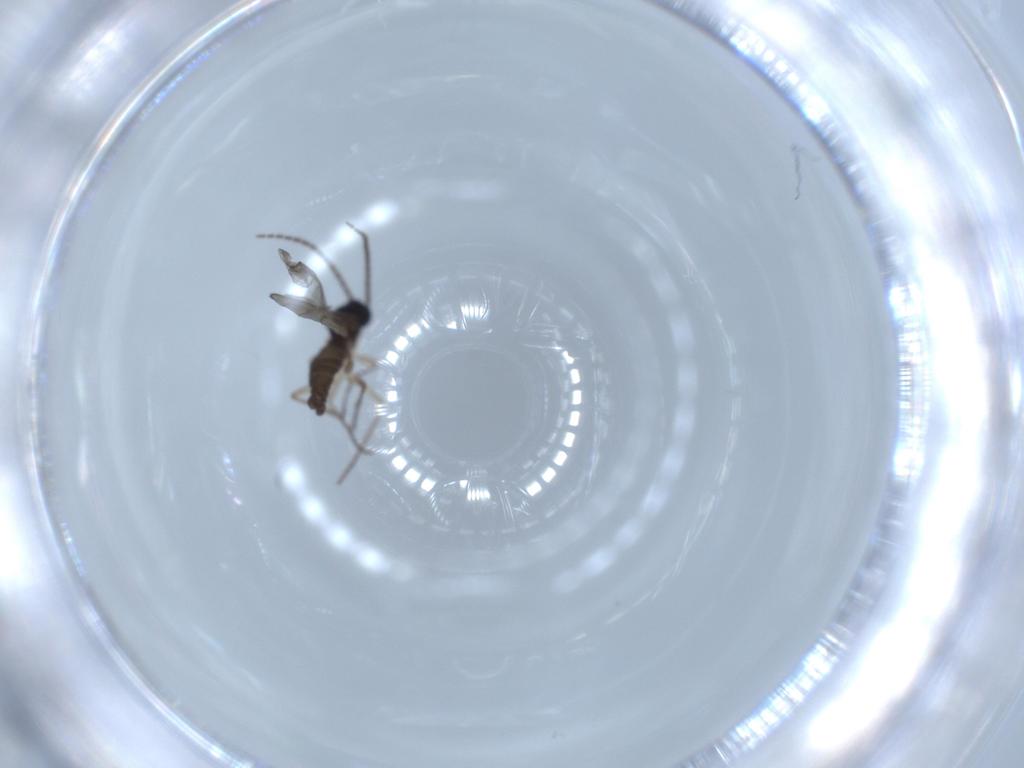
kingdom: Animalia
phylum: Arthropoda
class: Insecta
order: Diptera
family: Sciaridae
